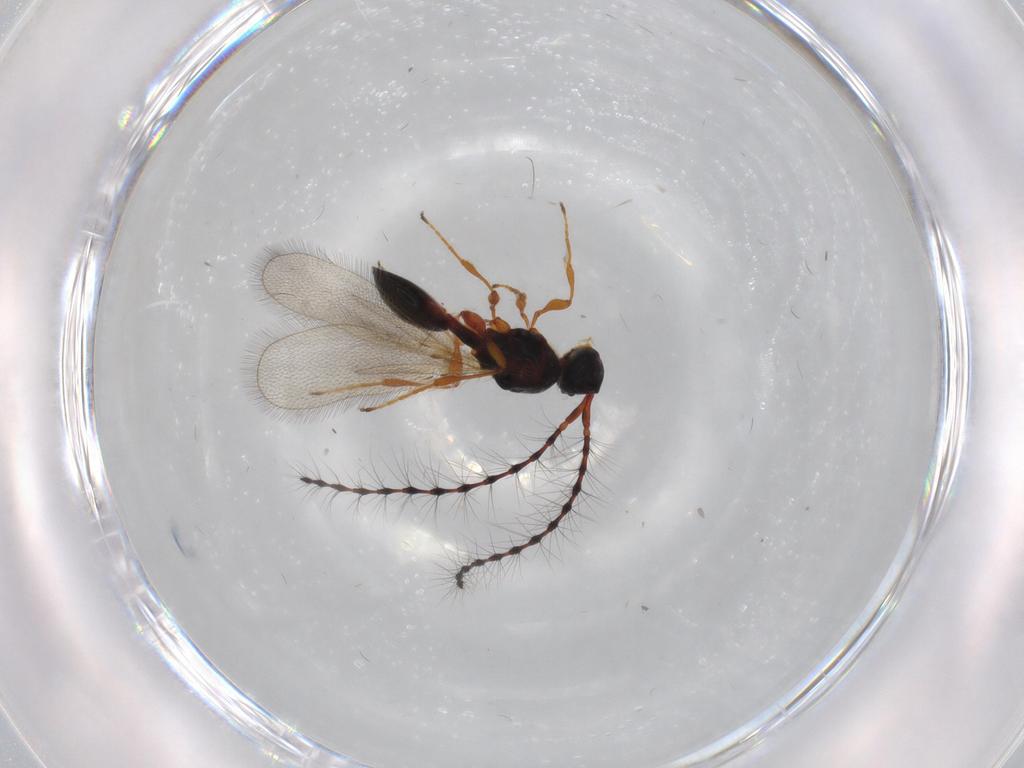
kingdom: Animalia
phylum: Arthropoda
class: Insecta
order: Hymenoptera
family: Diapriidae
